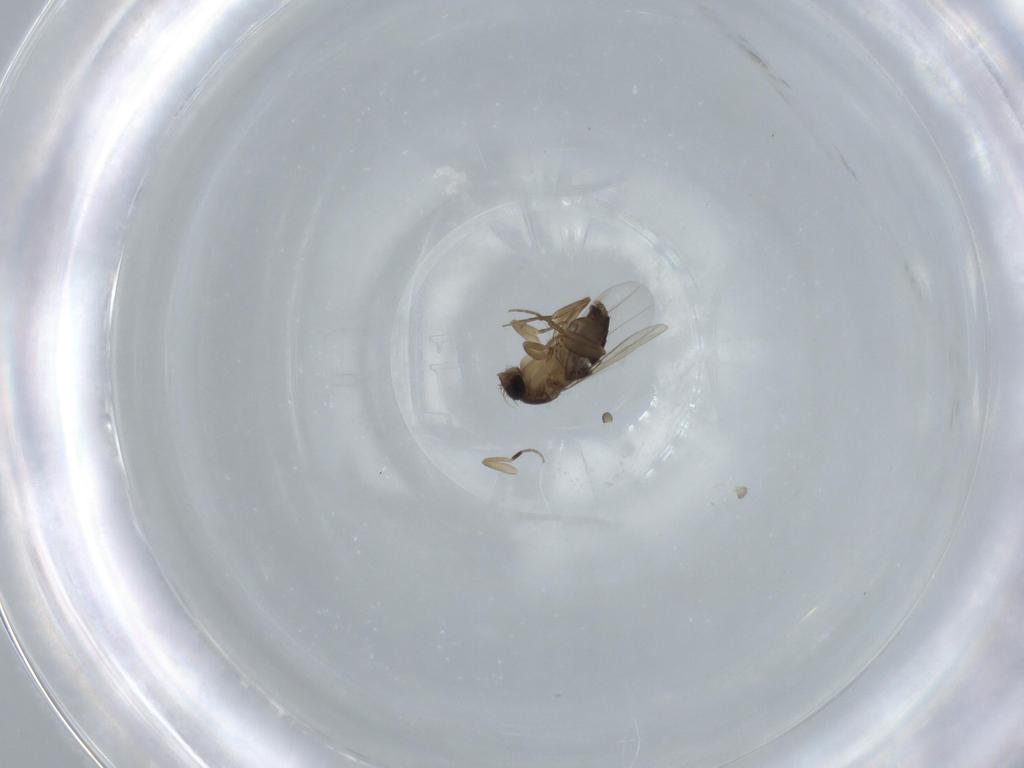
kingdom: Animalia
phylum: Arthropoda
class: Insecta
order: Diptera
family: Phoridae
